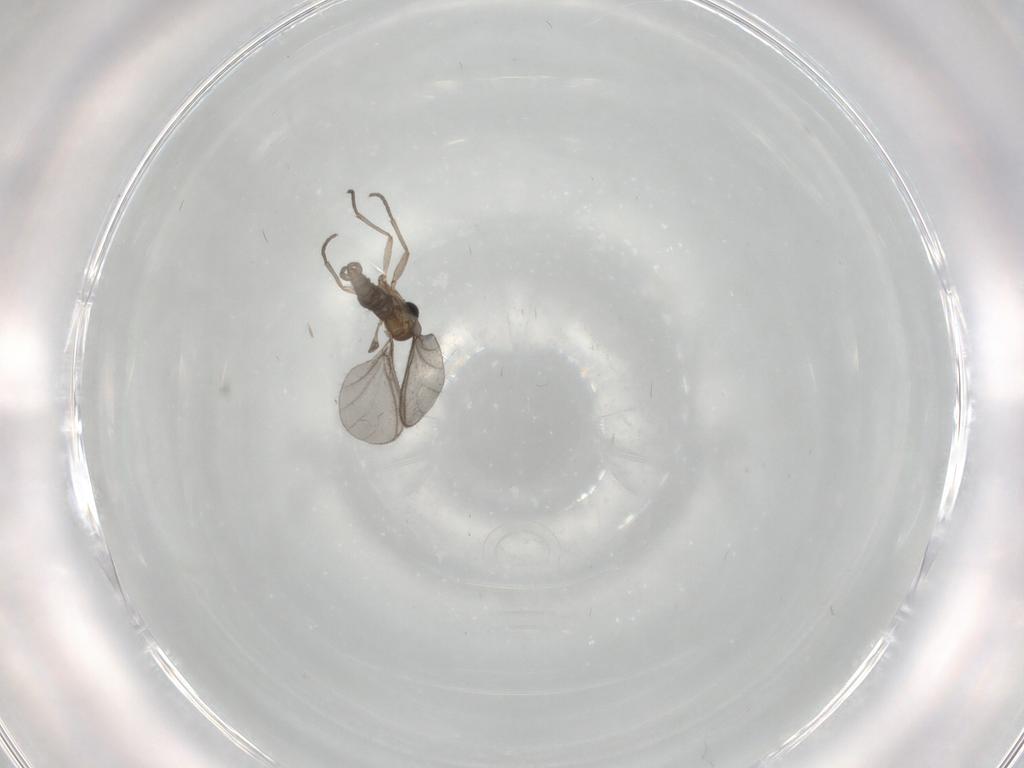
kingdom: Animalia
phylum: Arthropoda
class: Insecta
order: Diptera
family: Sciaridae
